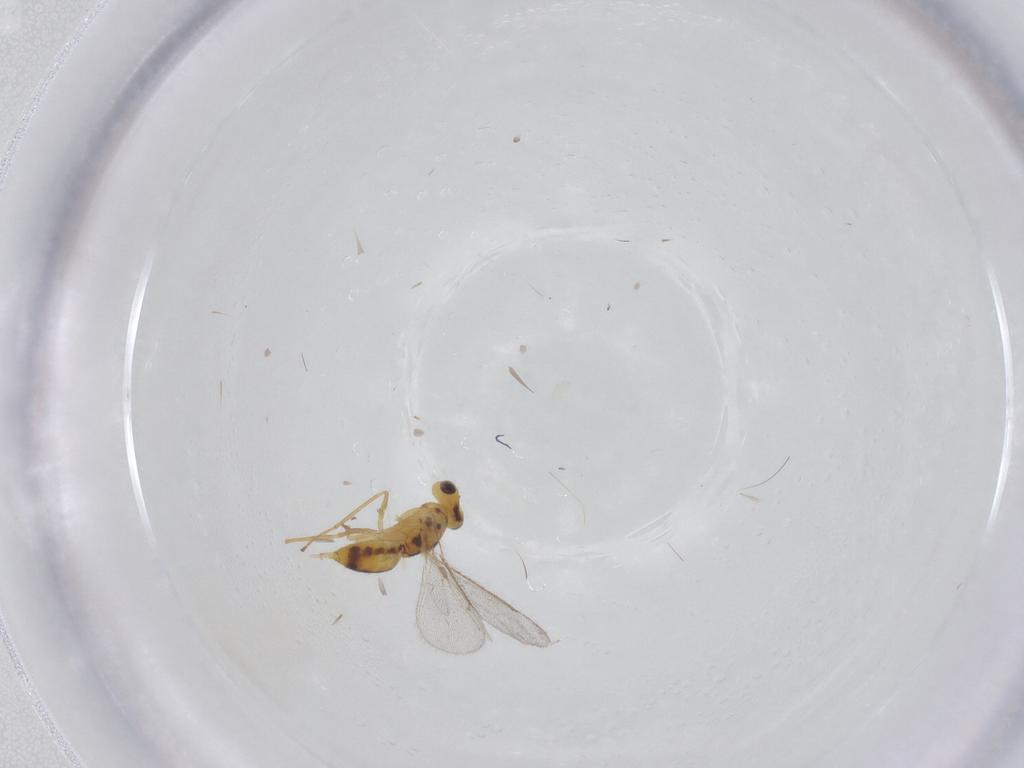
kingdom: Animalia
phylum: Arthropoda
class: Insecta
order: Hymenoptera
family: Eulophidae
